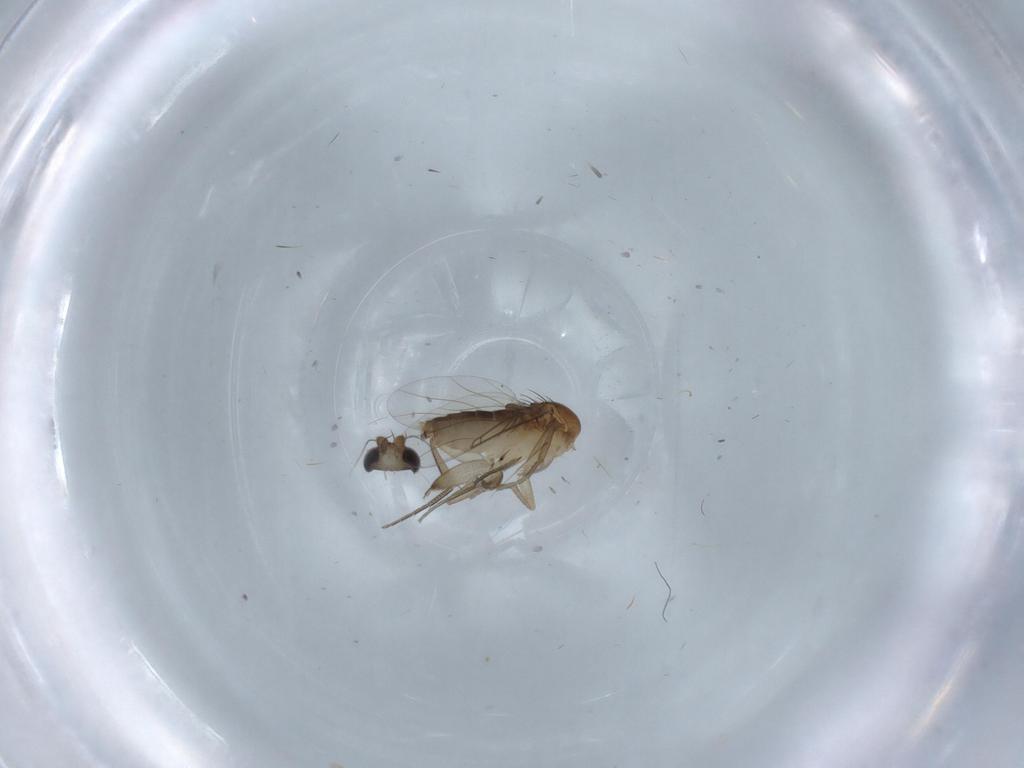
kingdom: Animalia
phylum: Arthropoda
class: Insecta
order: Diptera
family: Phoridae
